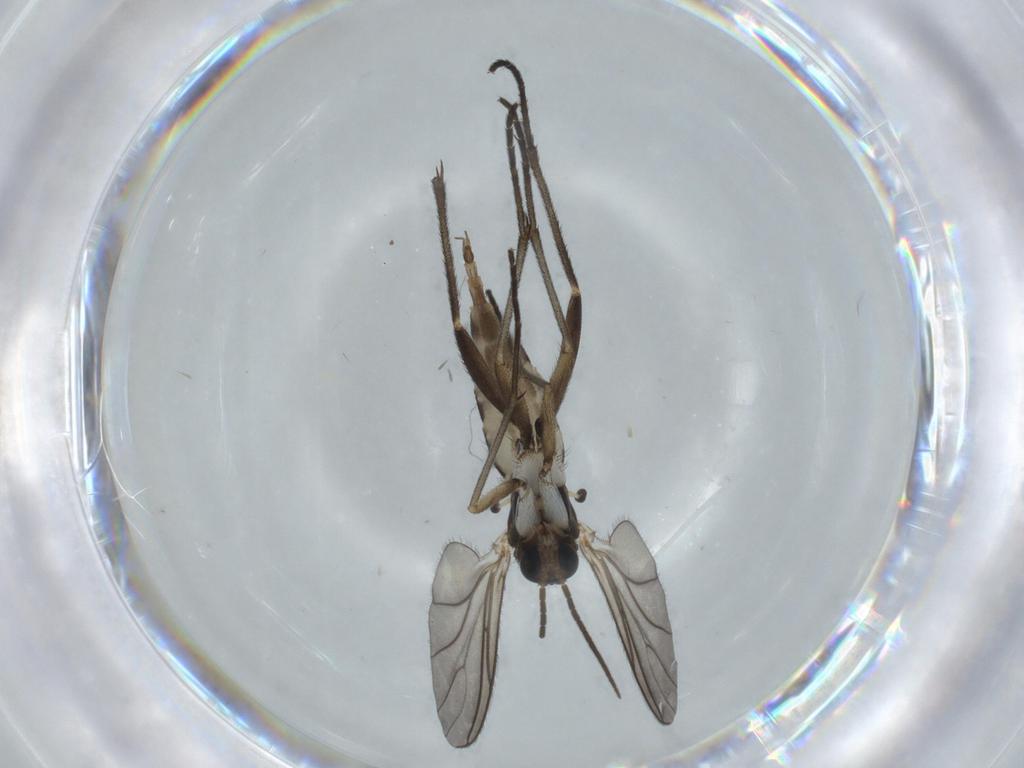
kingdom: Animalia
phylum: Arthropoda
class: Insecta
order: Diptera
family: Sciaridae
